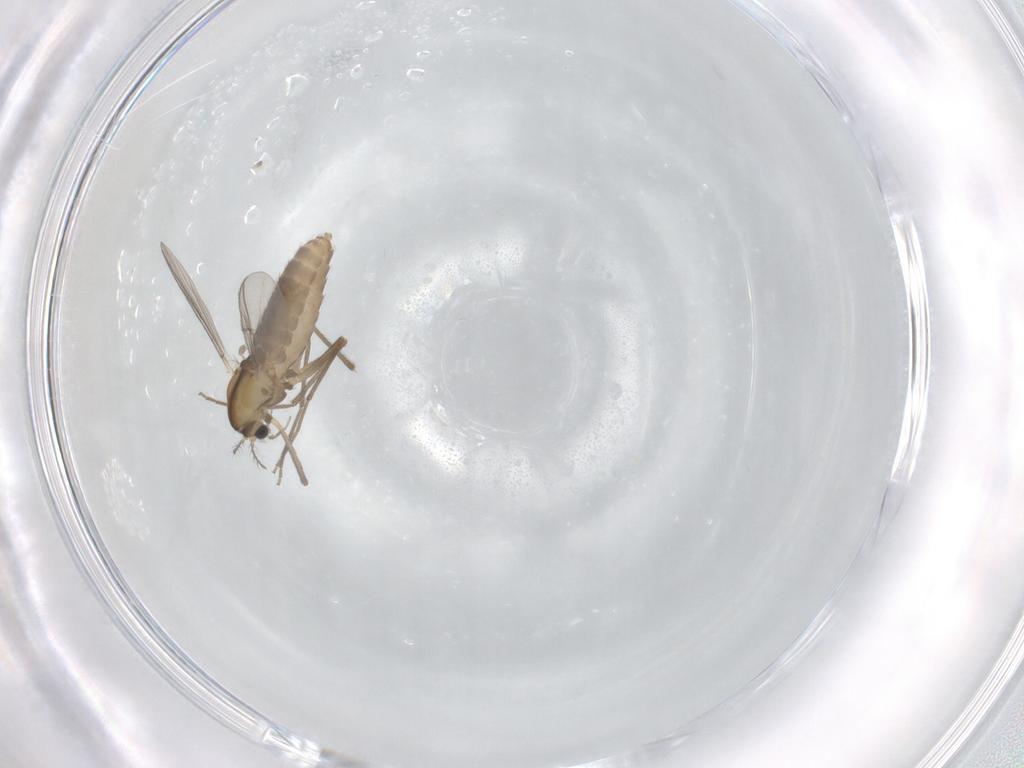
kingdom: Animalia
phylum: Arthropoda
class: Insecta
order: Diptera
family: Chironomidae
